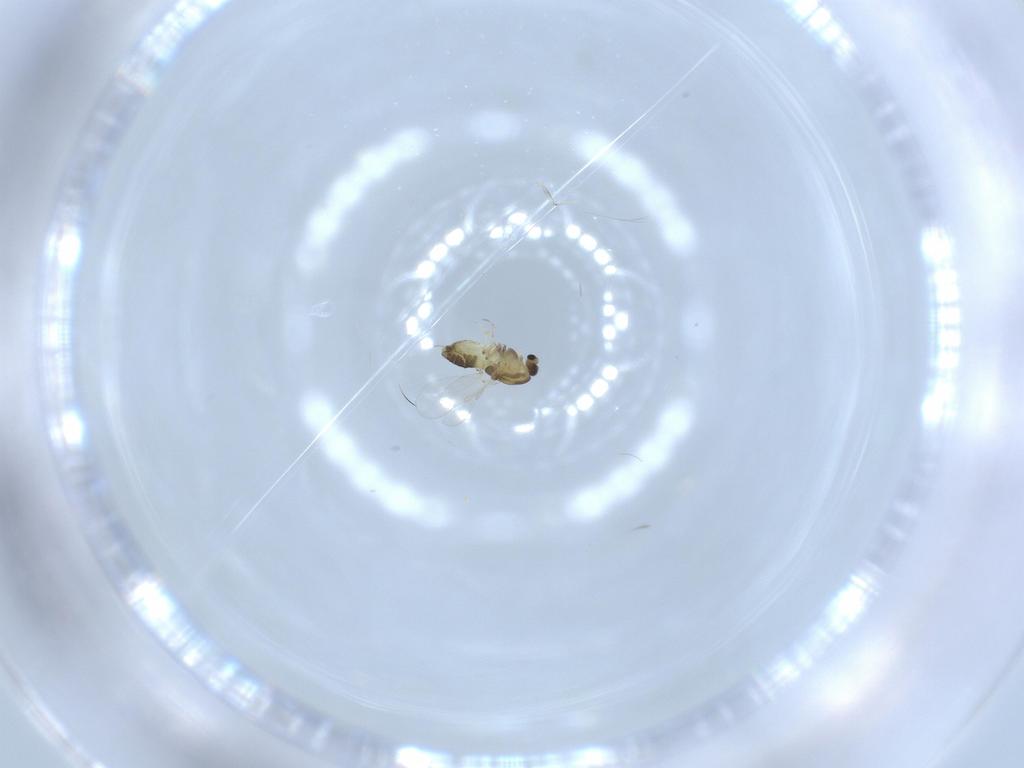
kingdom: Animalia
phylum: Arthropoda
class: Insecta
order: Diptera
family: Chironomidae
